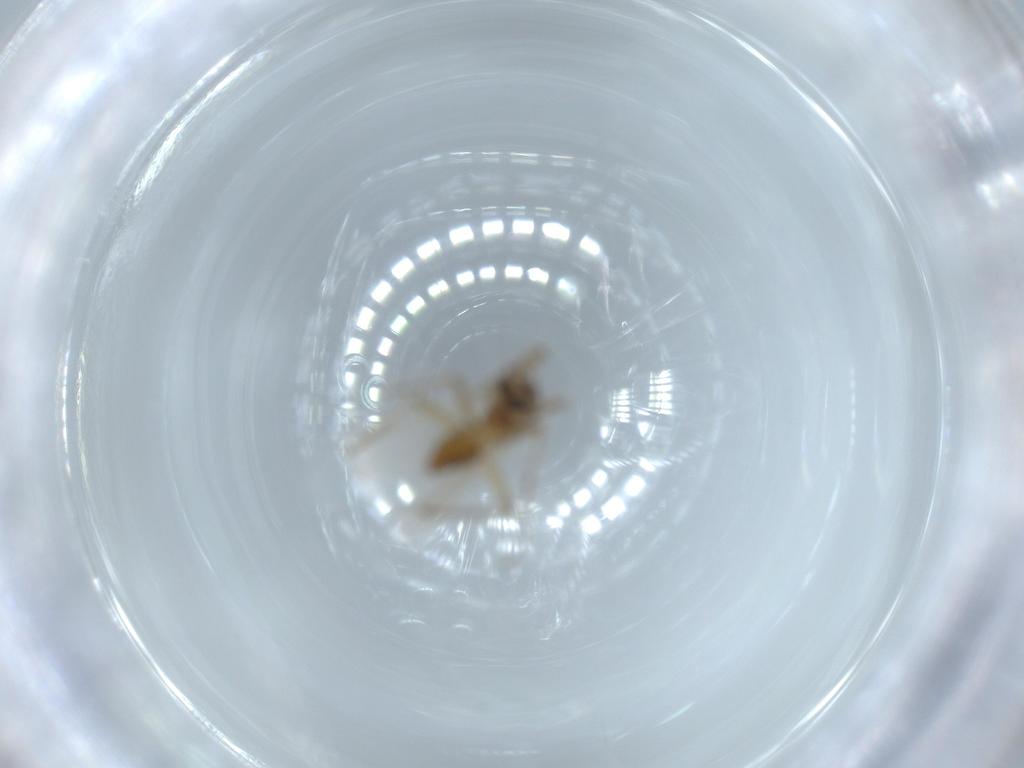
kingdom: Animalia
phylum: Arthropoda
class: Insecta
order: Diptera
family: Chironomidae
